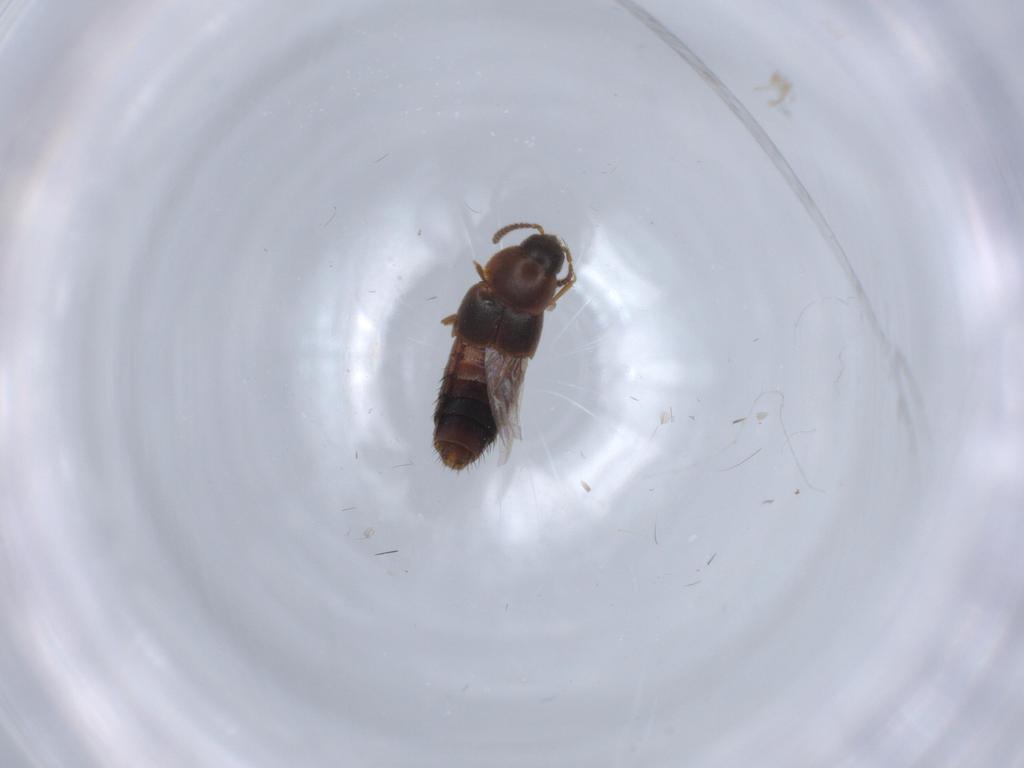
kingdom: Animalia
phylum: Arthropoda
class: Insecta
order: Coleoptera
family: Staphylinidae
